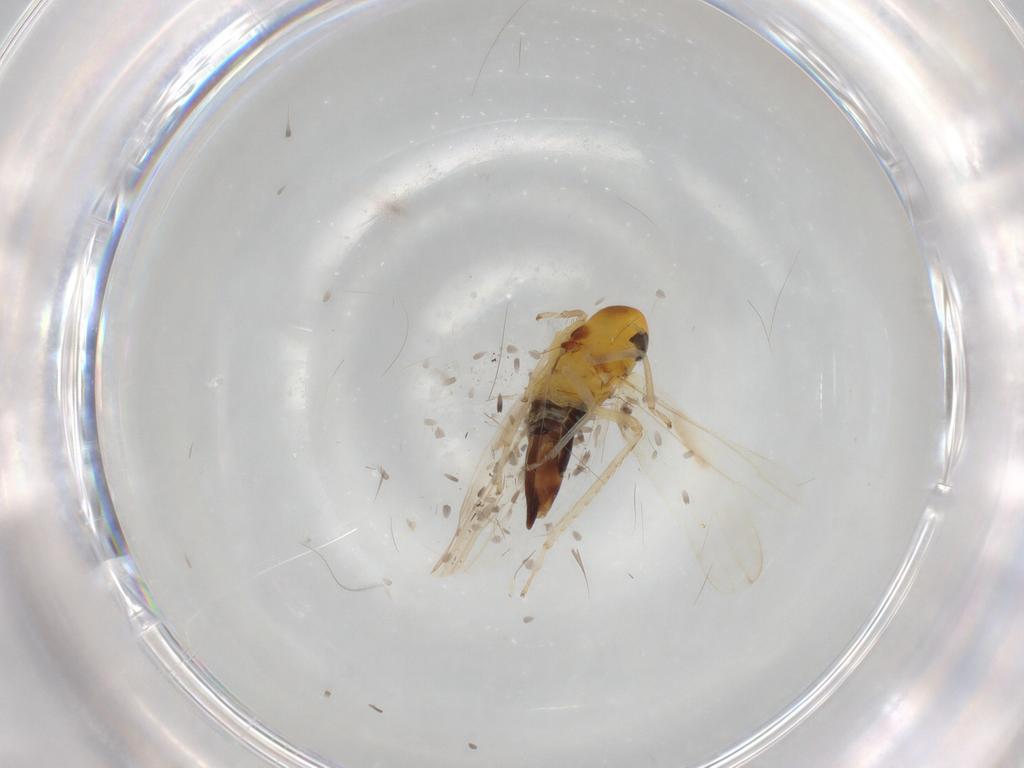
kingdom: Animalia
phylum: Arthropoda
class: Insecta
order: Hemiptera
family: Cicadellidae
